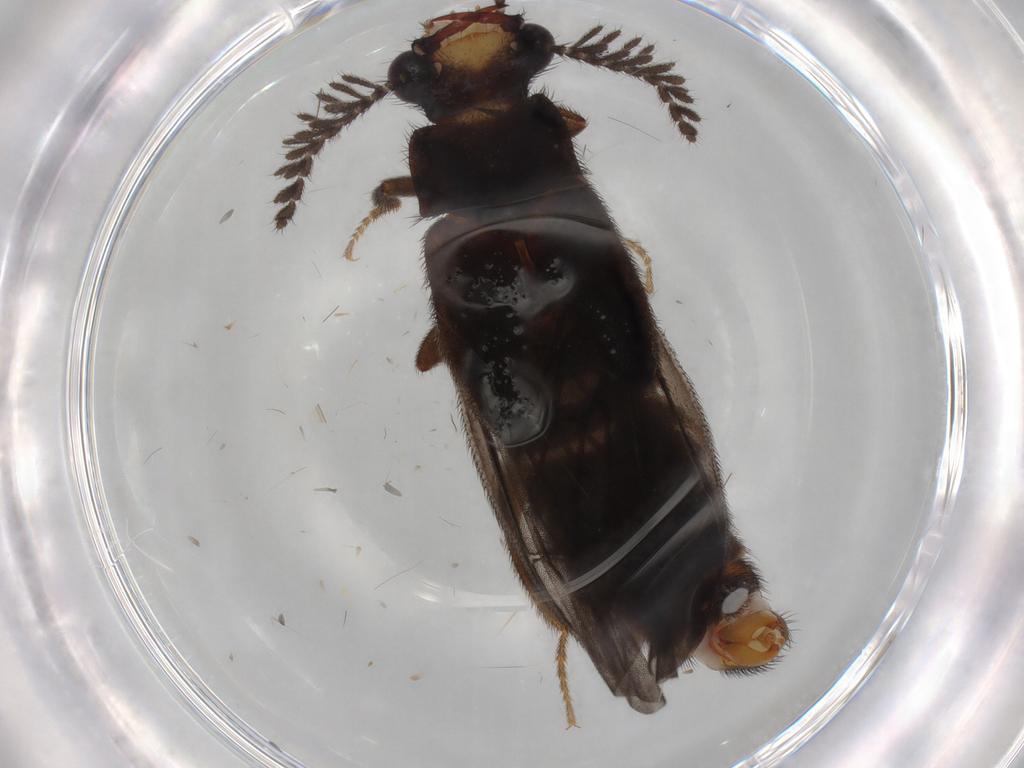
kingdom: Animalia
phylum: Arthropoda
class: Insecta
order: Coleoptera
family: Phengodidae
